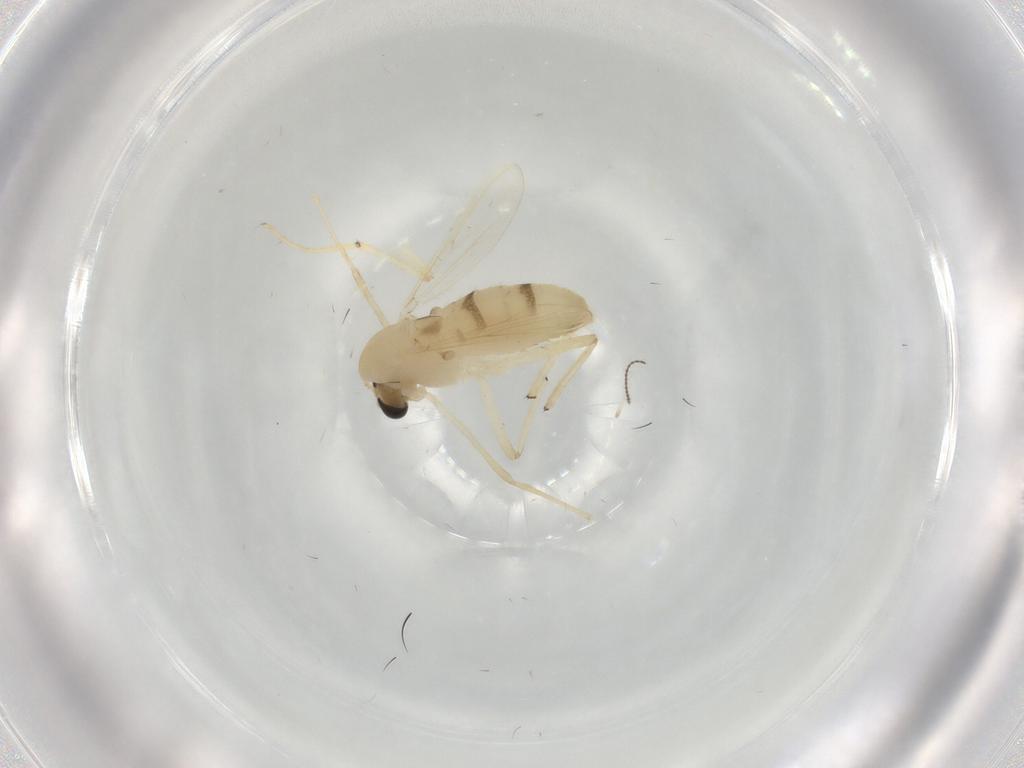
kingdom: Animalia
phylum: Arthropoda
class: Insecta
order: Diptera
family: Chironomidae
